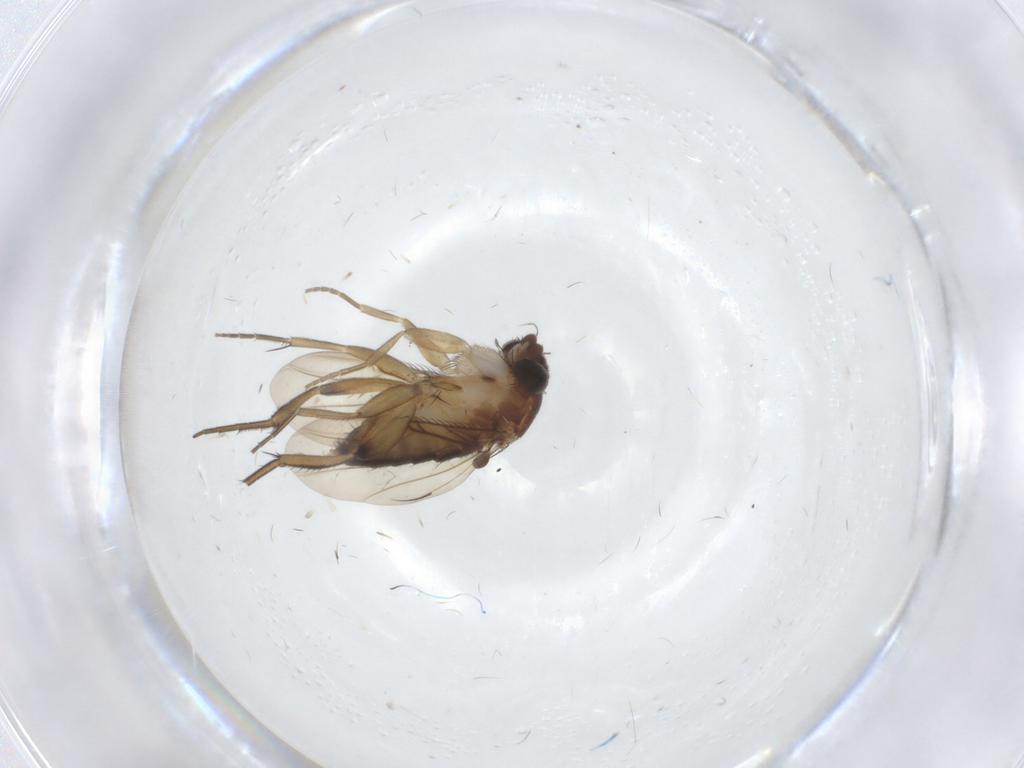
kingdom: Animalia
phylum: Arthropoda
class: Insecta
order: Diptera
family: Phoridae
